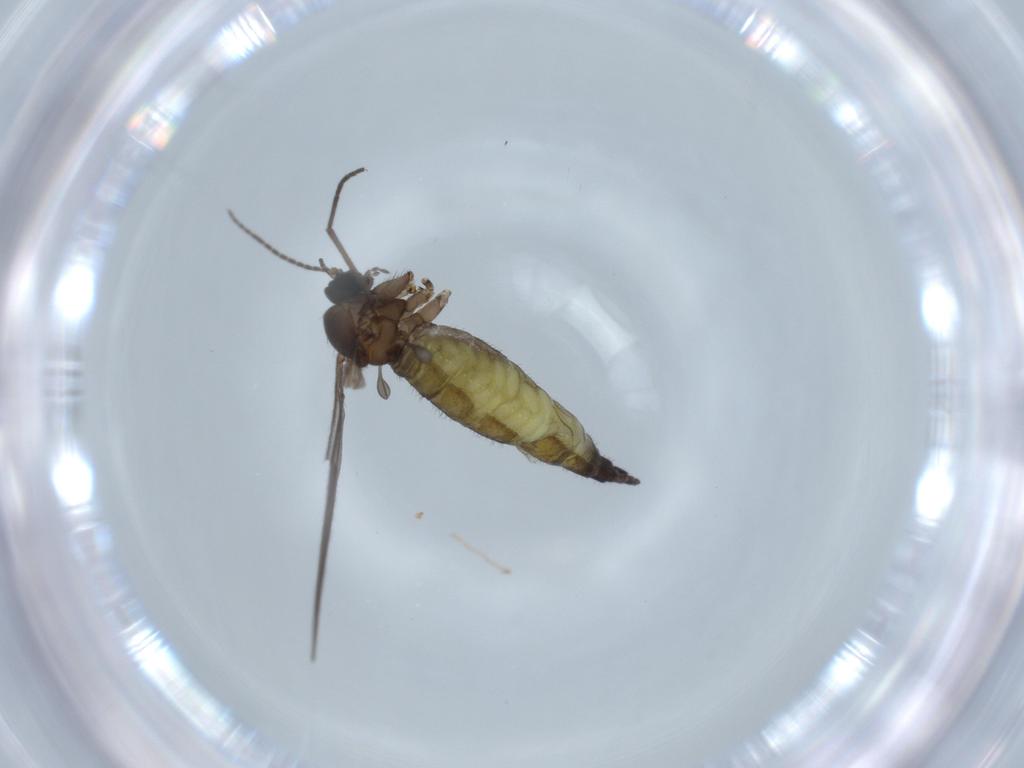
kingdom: Animalia
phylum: Arthropoda
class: Insecta
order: Diptera
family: Sciaridae
